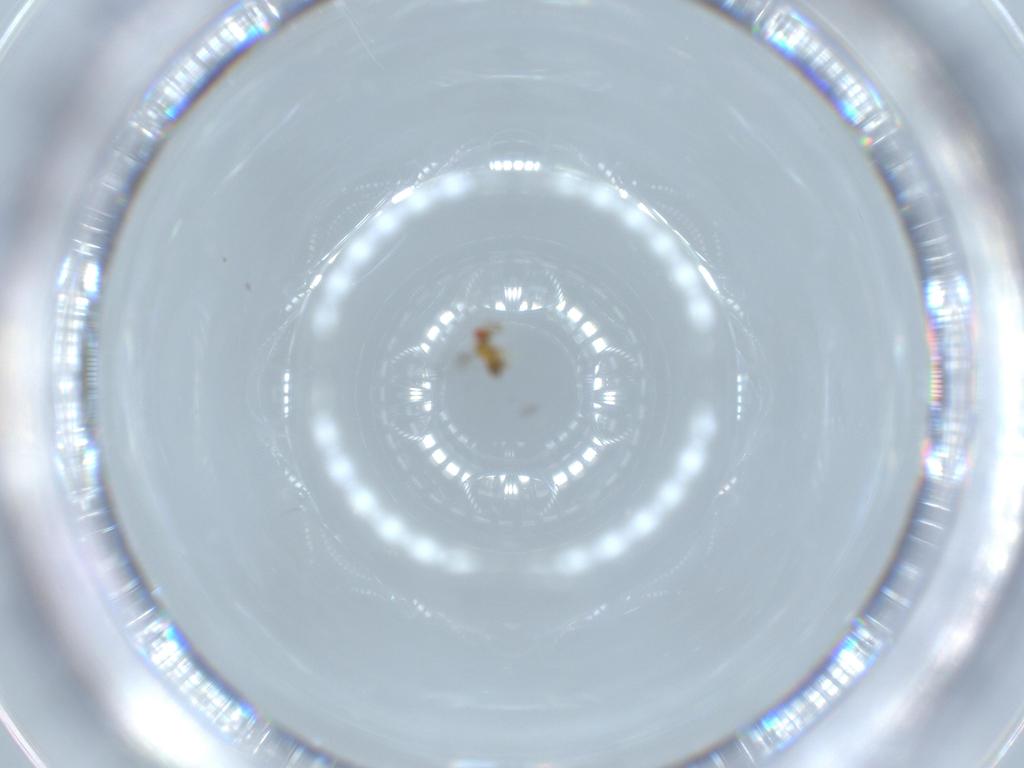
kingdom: Animalia
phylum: Arthropoda
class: Insecta
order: Hymenoptera
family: Trichogrammatidae
